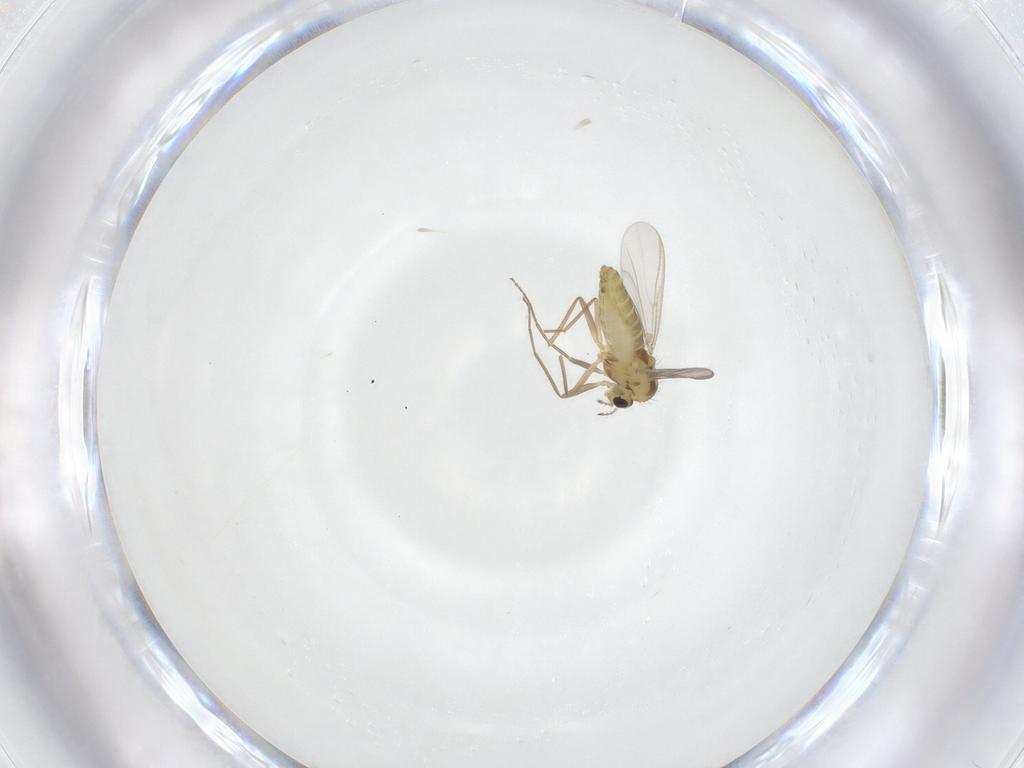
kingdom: Animalia
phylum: Arthropoda
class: Insecta
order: Diptera
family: Chironomidae
